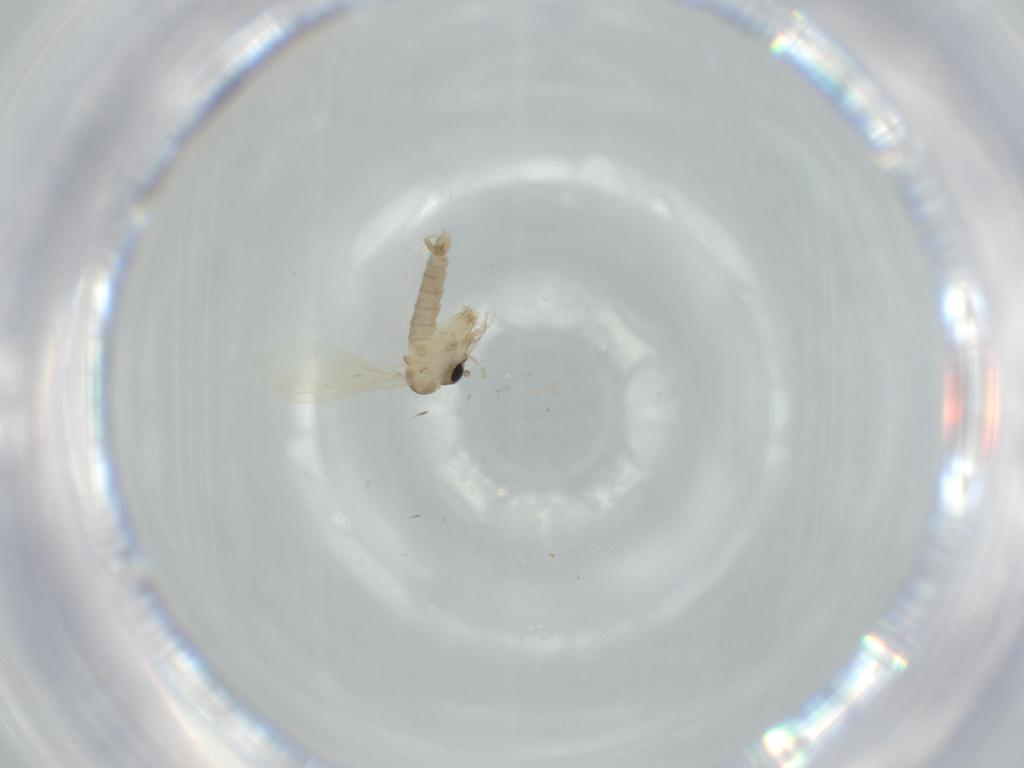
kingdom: Animalia
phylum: Arthropoda
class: Insecta
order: Diptera
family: Psychodidae
